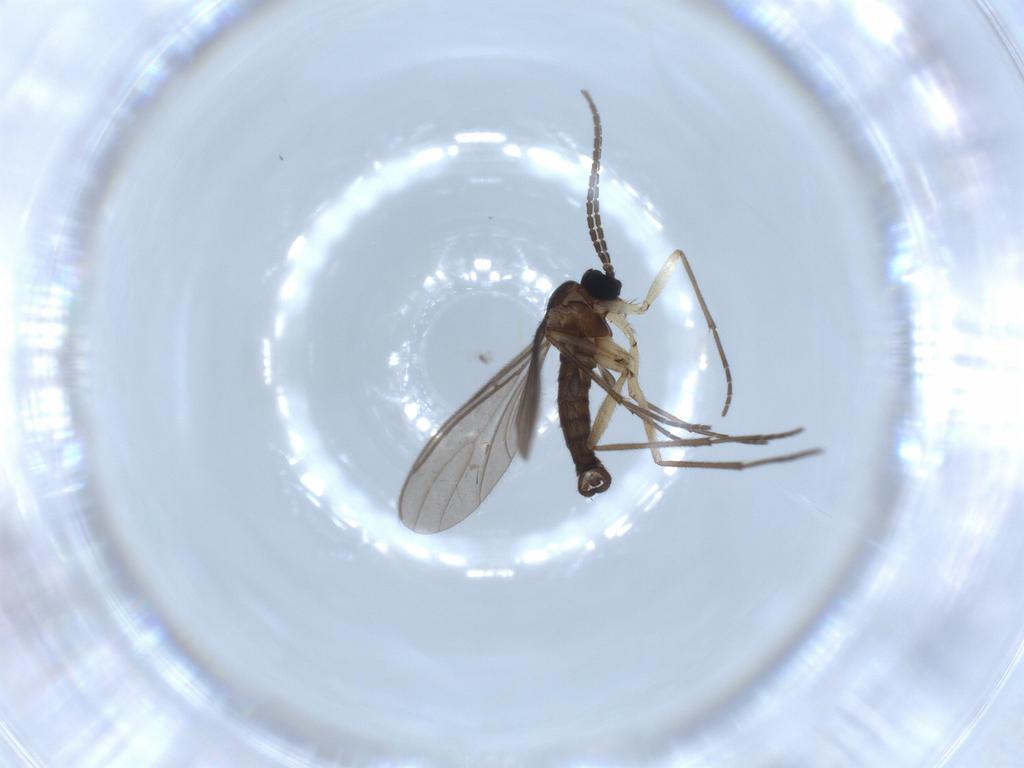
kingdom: Animalia
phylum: Arthropoda
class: Insecta
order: Diptera
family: Sciaridae
